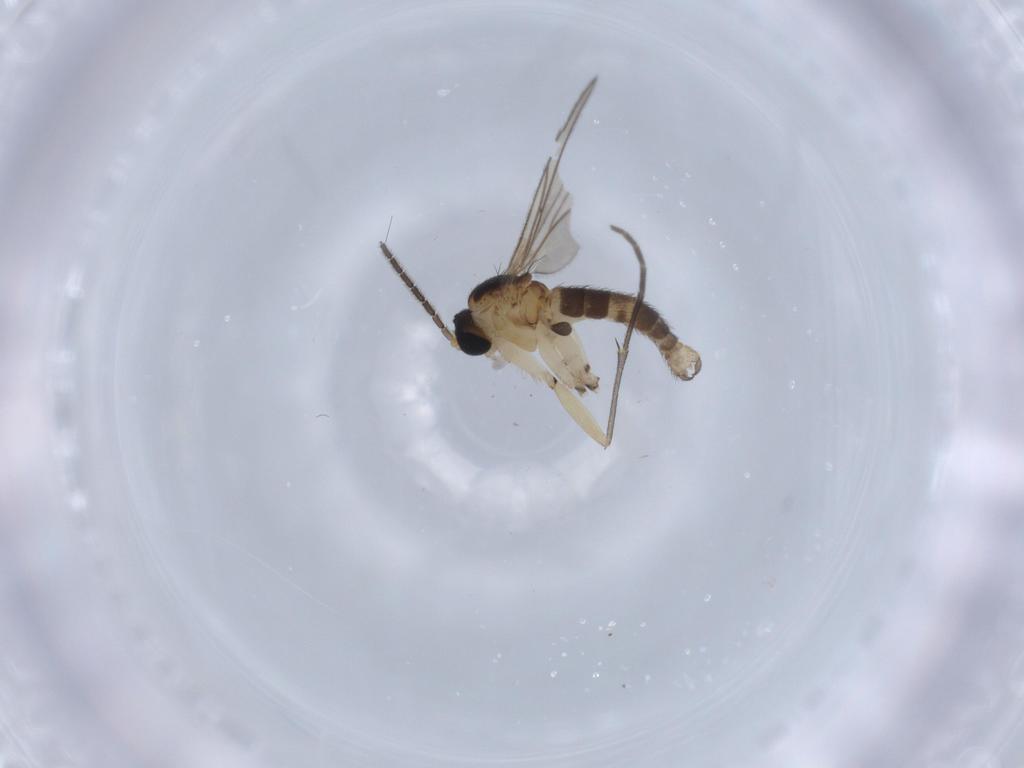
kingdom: Animalia
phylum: Arthropoda
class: Insecta
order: Diptera
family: Sciaridae
